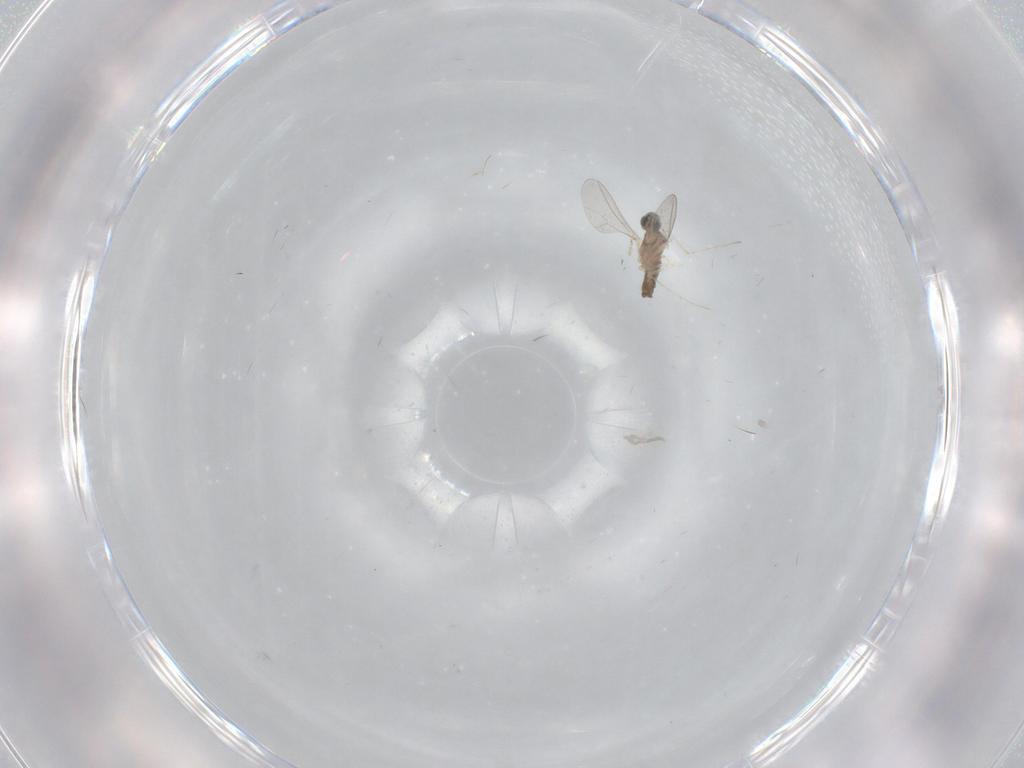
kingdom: Animalia
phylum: Arthropoda
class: Insecta
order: Diptera
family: Cecidomyiidae
